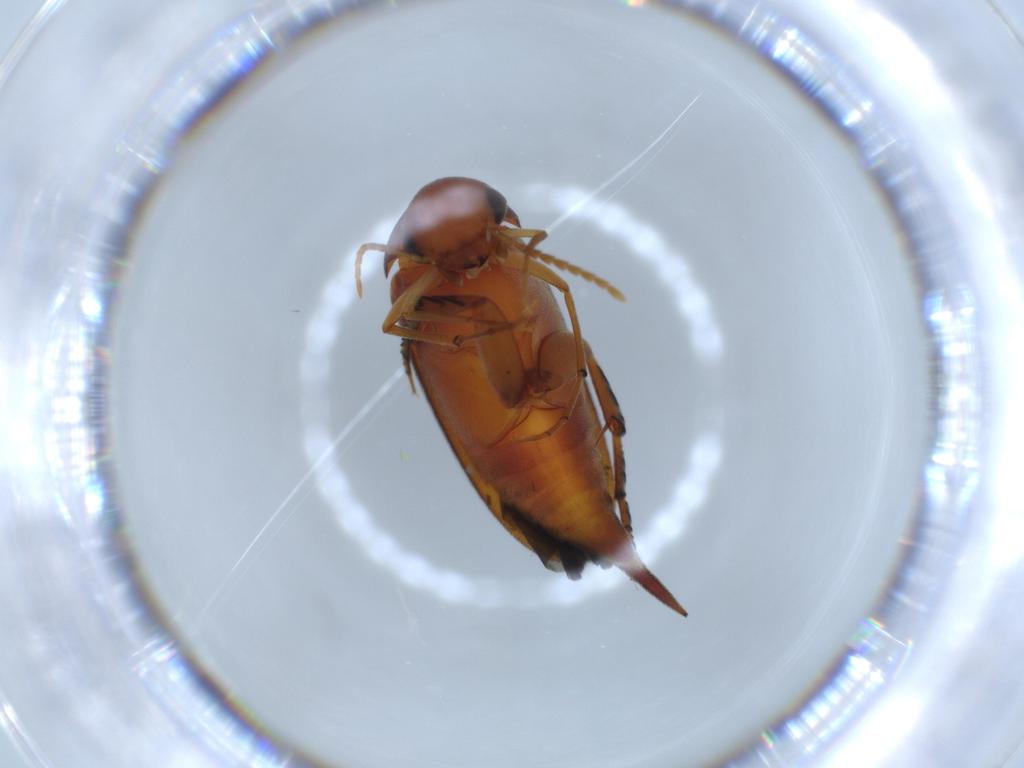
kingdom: Animalia
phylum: Arthropoda
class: Insecta
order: Coleoptera
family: Mordellidae
